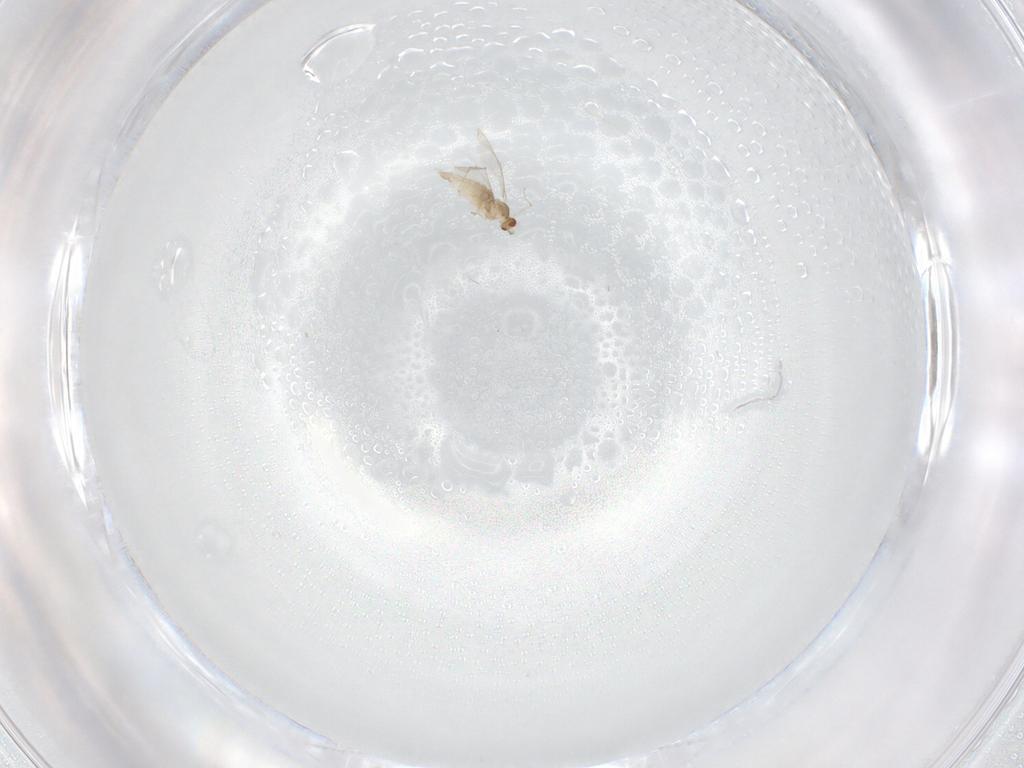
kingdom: Animalia
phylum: Arthropoda
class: Insecta
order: Diptera
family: Cecidomyiidae
